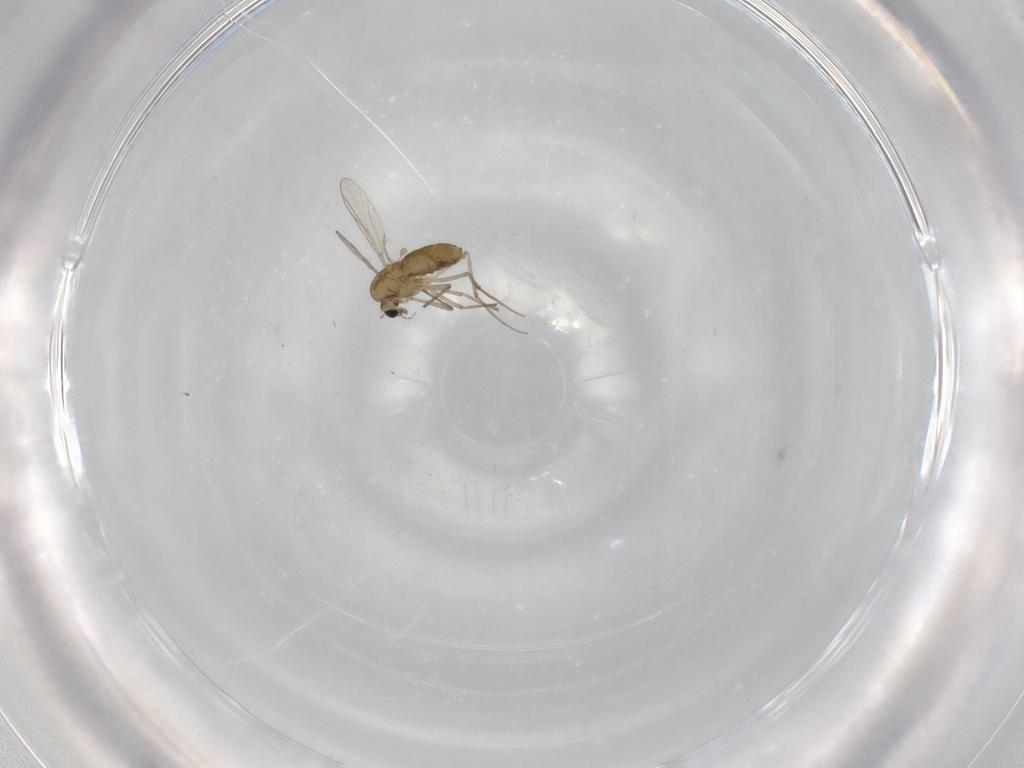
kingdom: Animalia
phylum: Arthropoda
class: Insecta
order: Diptera
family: Chironomidae
